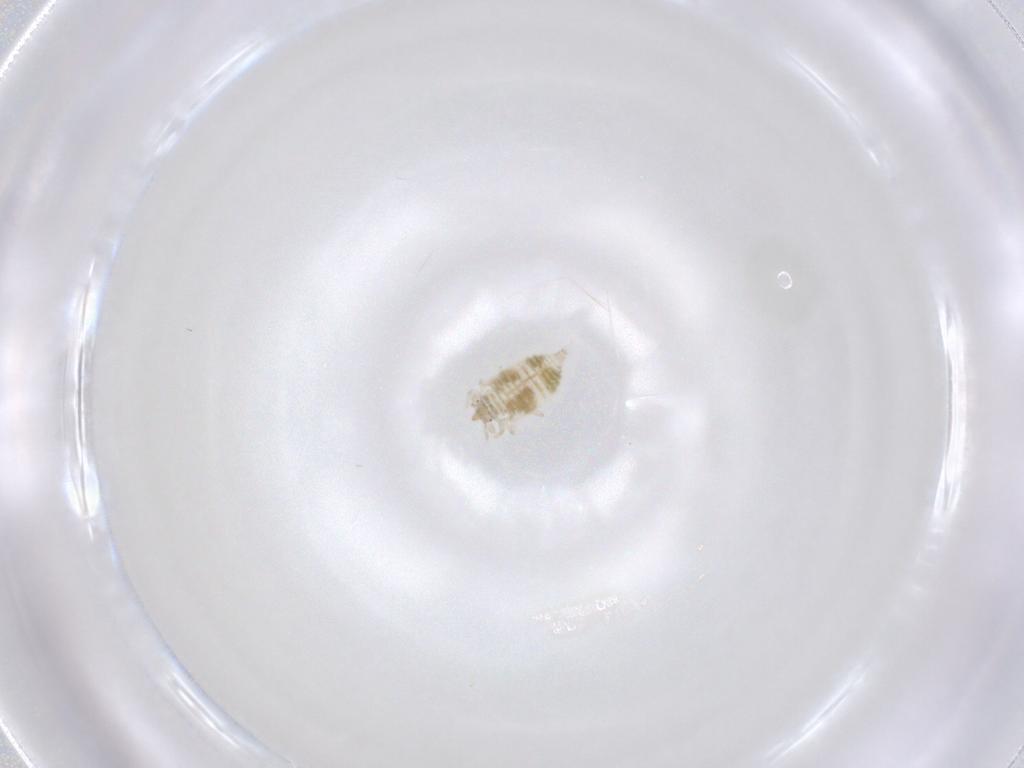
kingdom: Animalia
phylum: Arthropoda
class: Insecta
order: Neuroptera
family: Coniopterygidae
